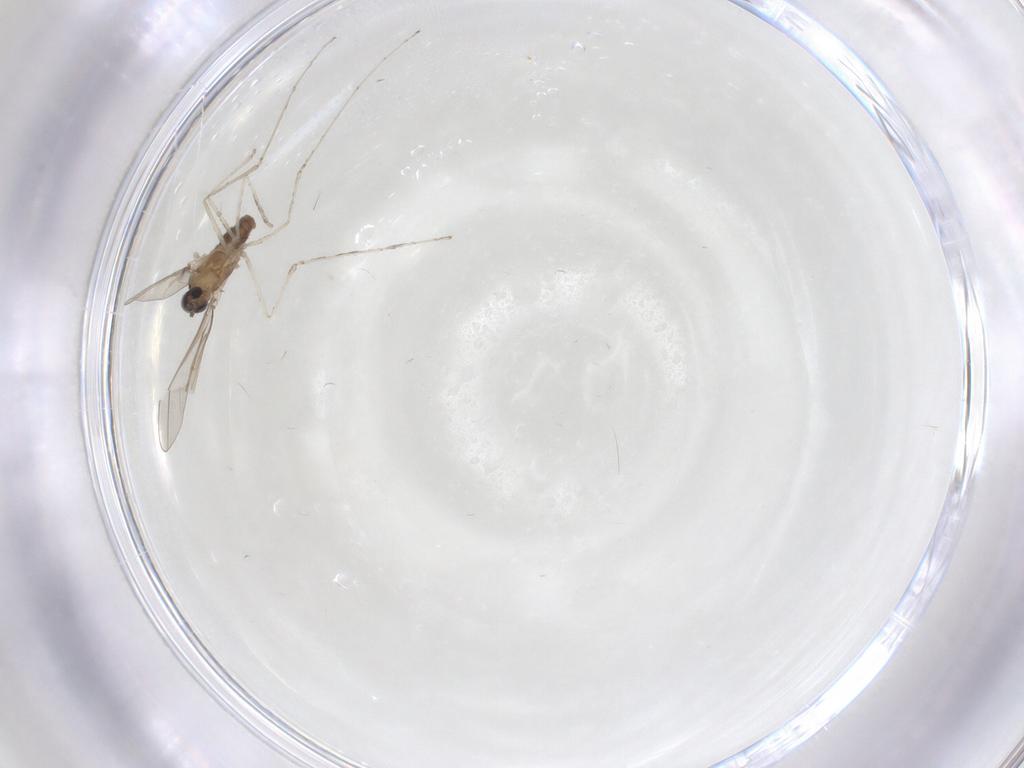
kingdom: Animalia
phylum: Arthropoda
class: Insecta
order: Diptera
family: Cecidomyiidae
